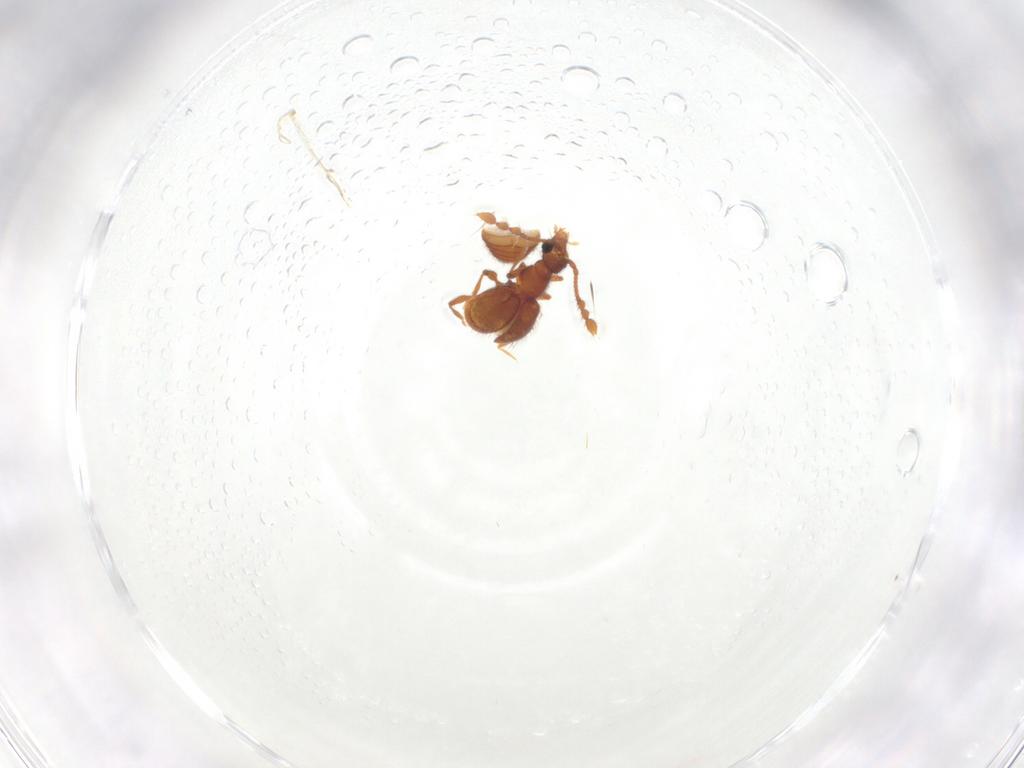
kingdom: Animalia
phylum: Arthropoda
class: Insecta
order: Coleoptera
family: Staphylinidae
